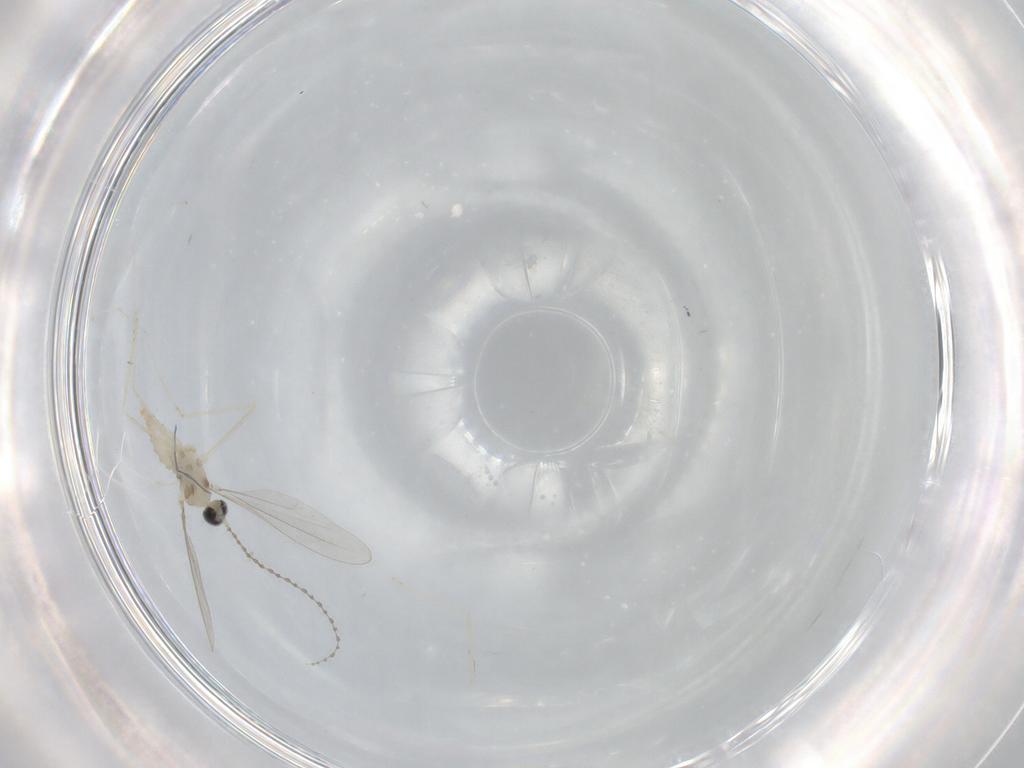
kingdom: Animalia
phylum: Arthropoda
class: Insecta
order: Diptera
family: Cecidomyiidae
